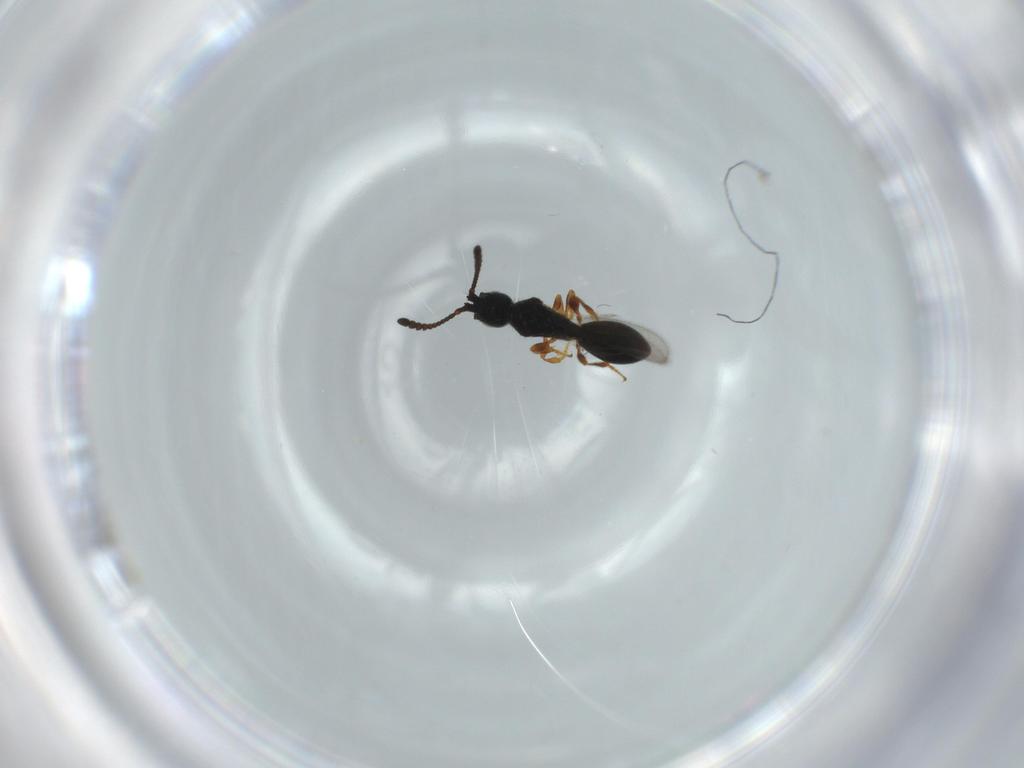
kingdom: Animalia
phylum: Arthropoda
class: Insecta
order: Hymenoptera
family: Diapriidae
